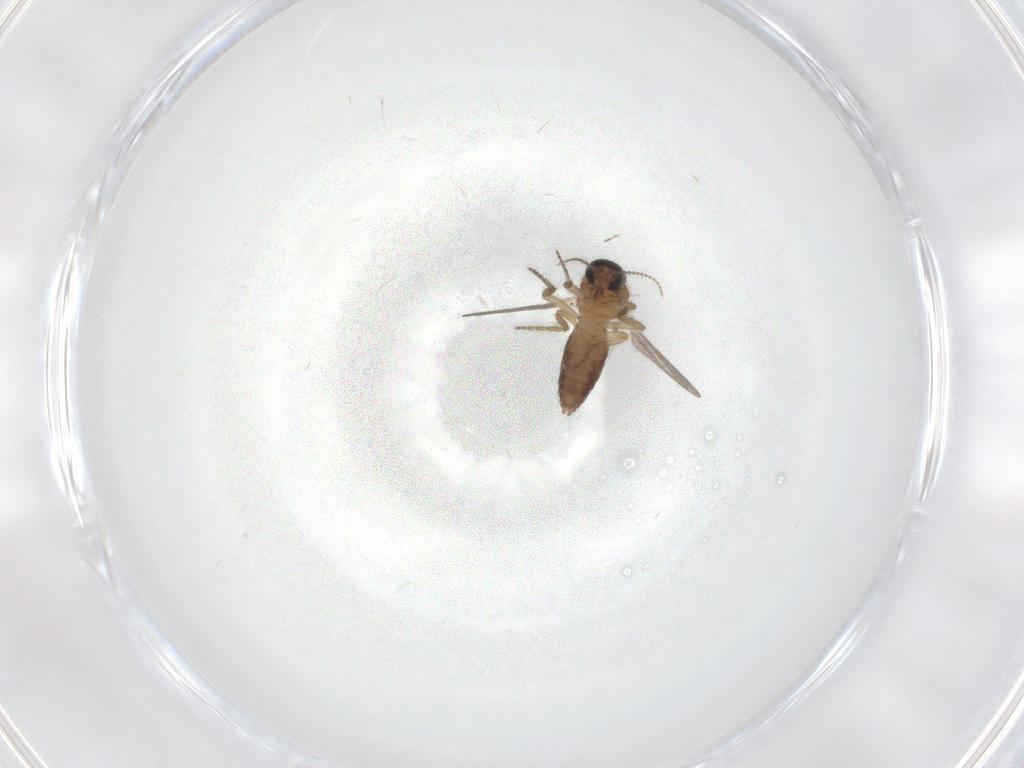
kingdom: Animalia
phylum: Arthropoda
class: Insecta
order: Diptera
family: Ceratopogonidae
